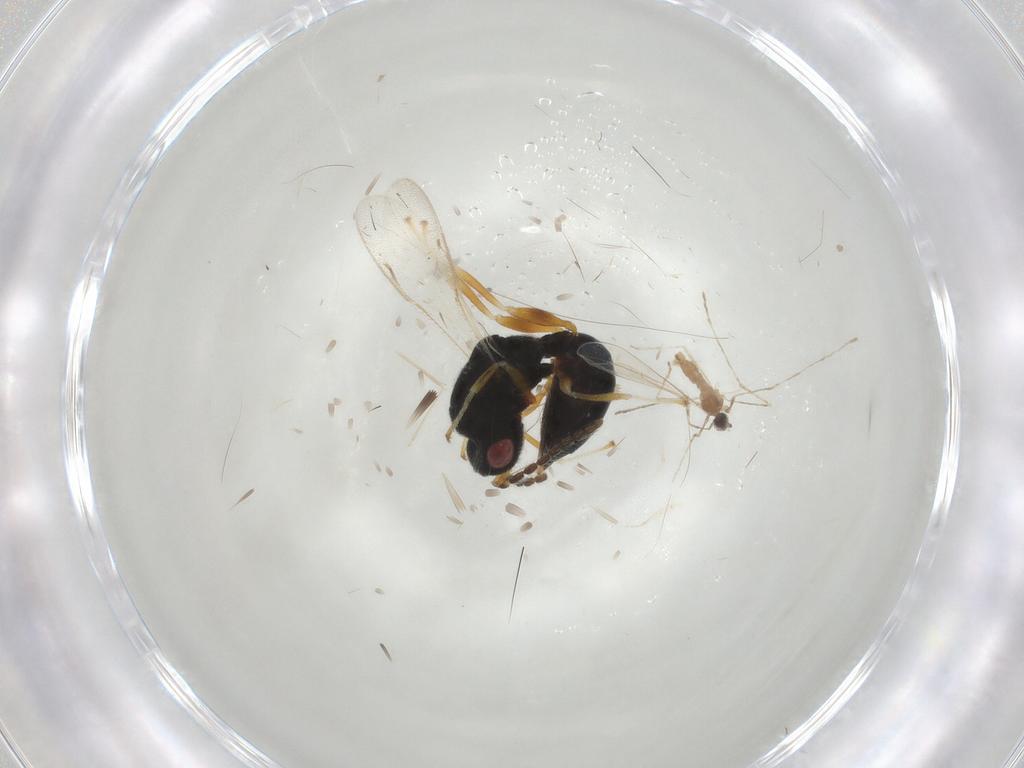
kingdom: Animalia
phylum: Arthropoda
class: Insecta
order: Hymenoptera
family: Eurytomidae
